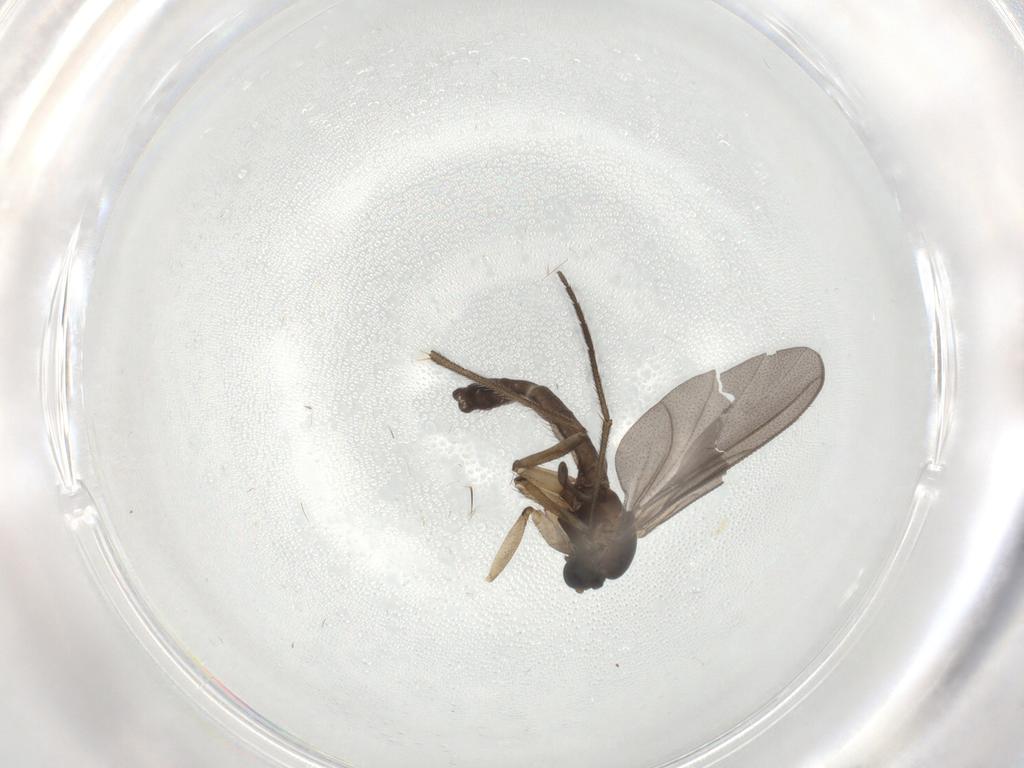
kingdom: Animalia
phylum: Arthropoda
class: Insecta
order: Diptera
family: Sciaridae
